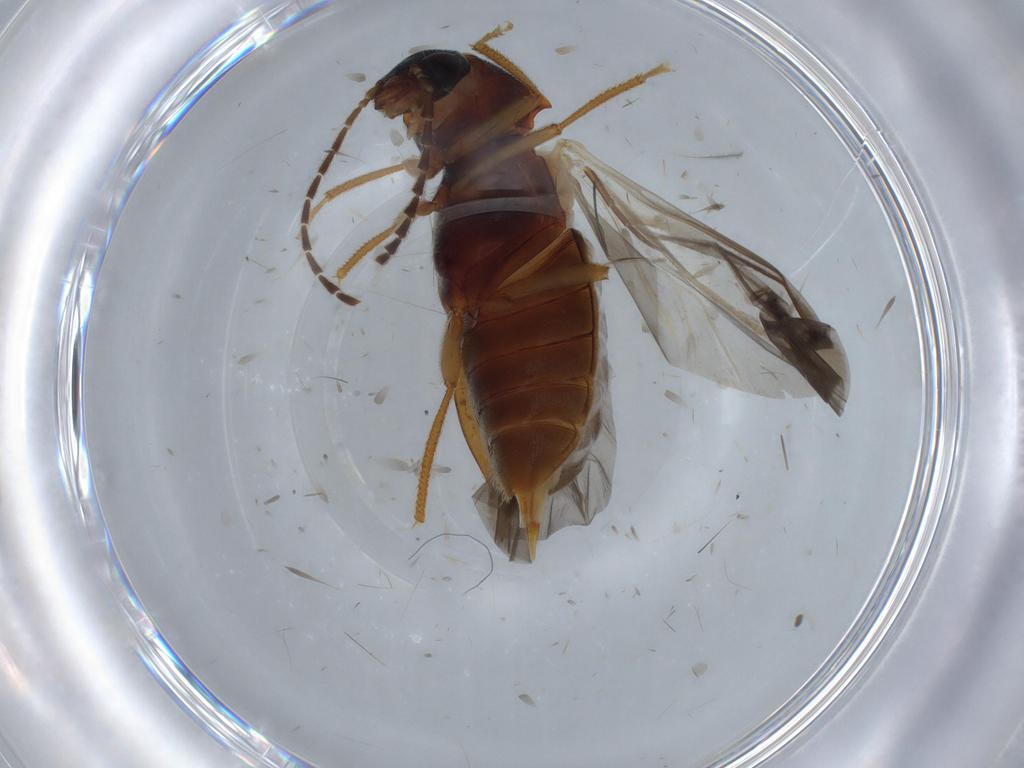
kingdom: Animalia
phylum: Arthropoda
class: Insecta
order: Coleoptera
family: Ptilodactylidae
